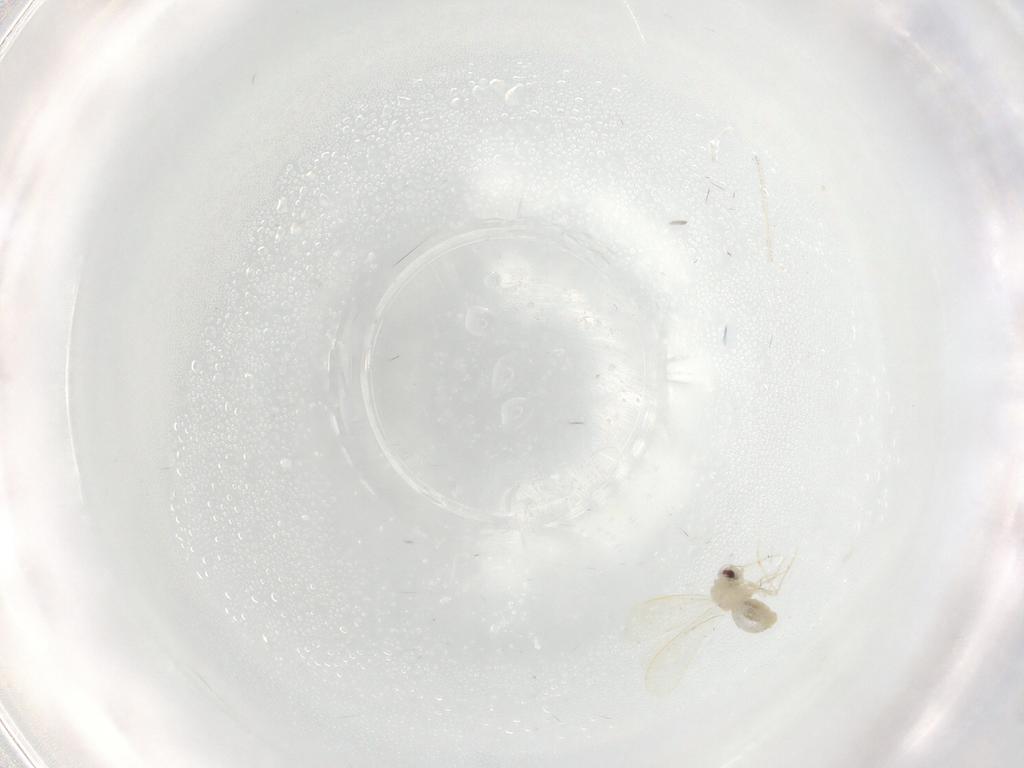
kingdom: Animalia
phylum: Arthropoda
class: Insecta
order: Hemiptera
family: Aleyrodidae
